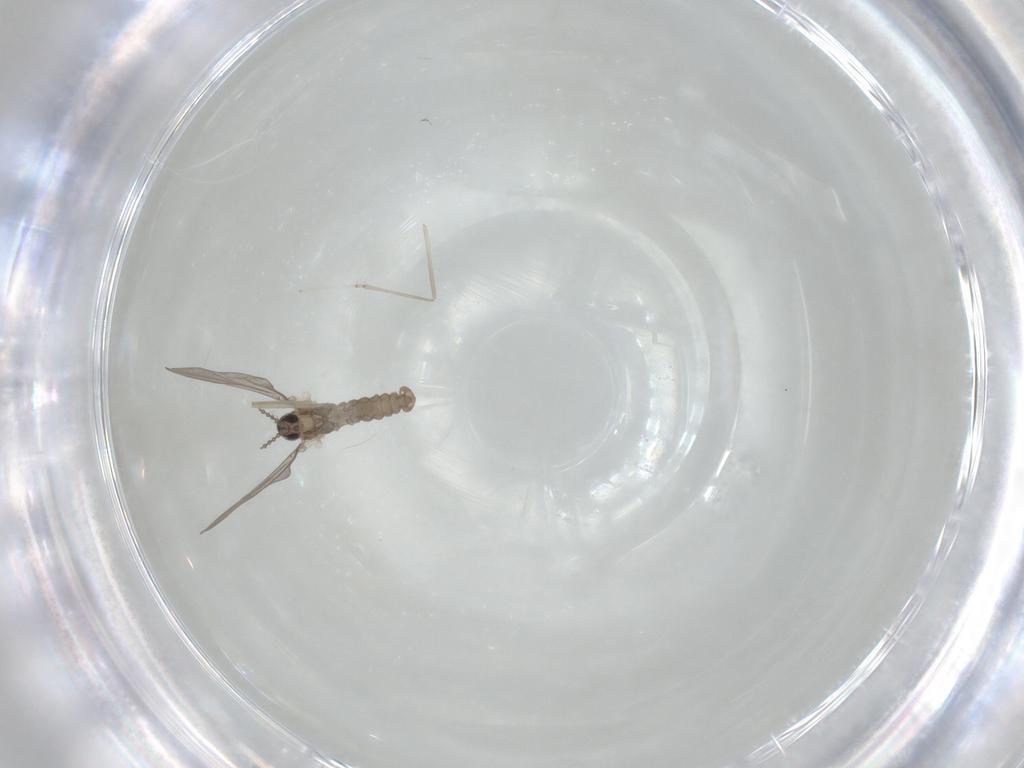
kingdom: Animalia
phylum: Arthropoda
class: Insecta
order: Diptera
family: Cecidomyiidae
